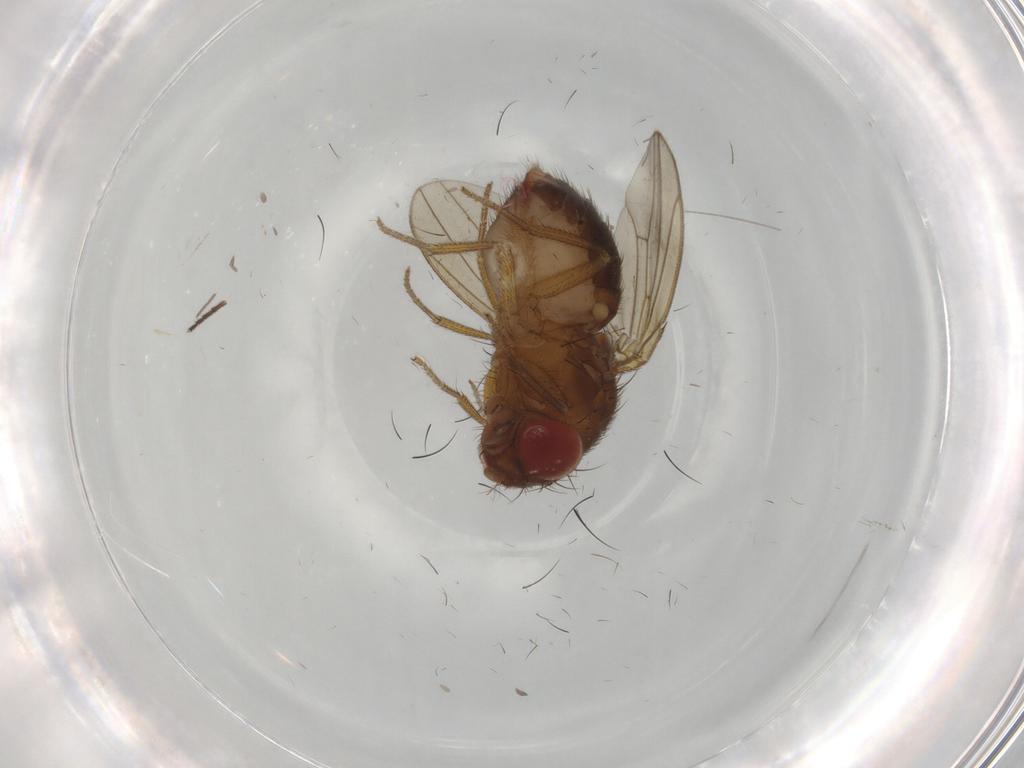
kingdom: Animalia
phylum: Arthropoda
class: Insecta
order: Diptera
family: Drosophilidae
